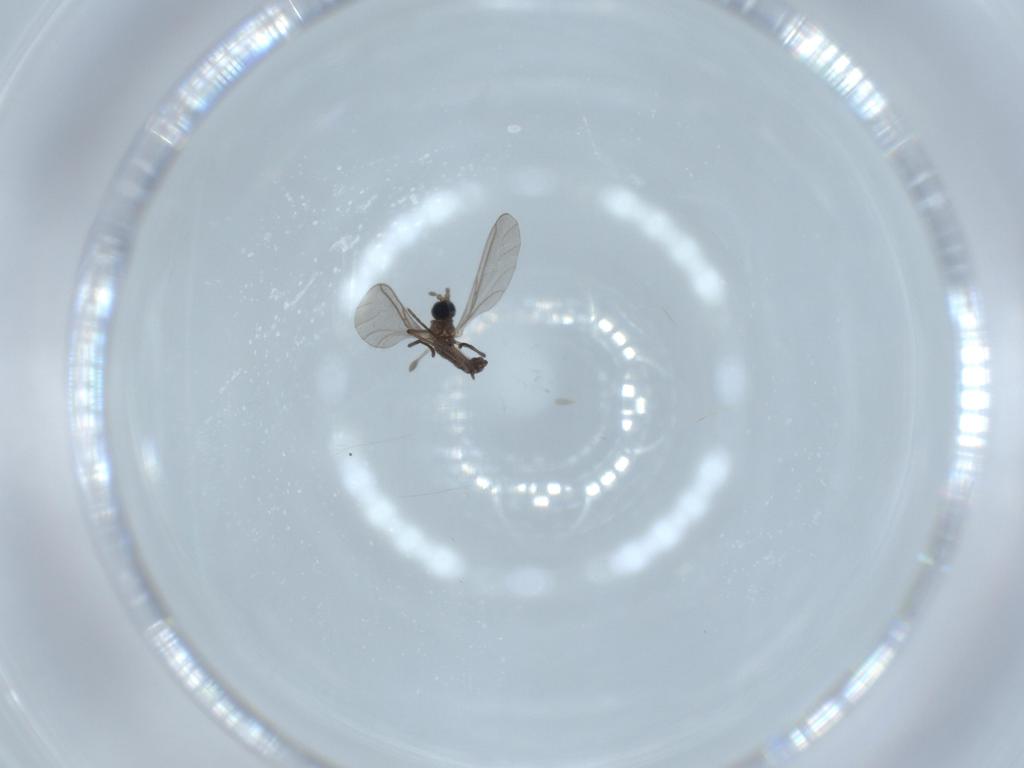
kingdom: Animalia
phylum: Arthropoda
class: Insecta
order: Diptera
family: Sciaridae
